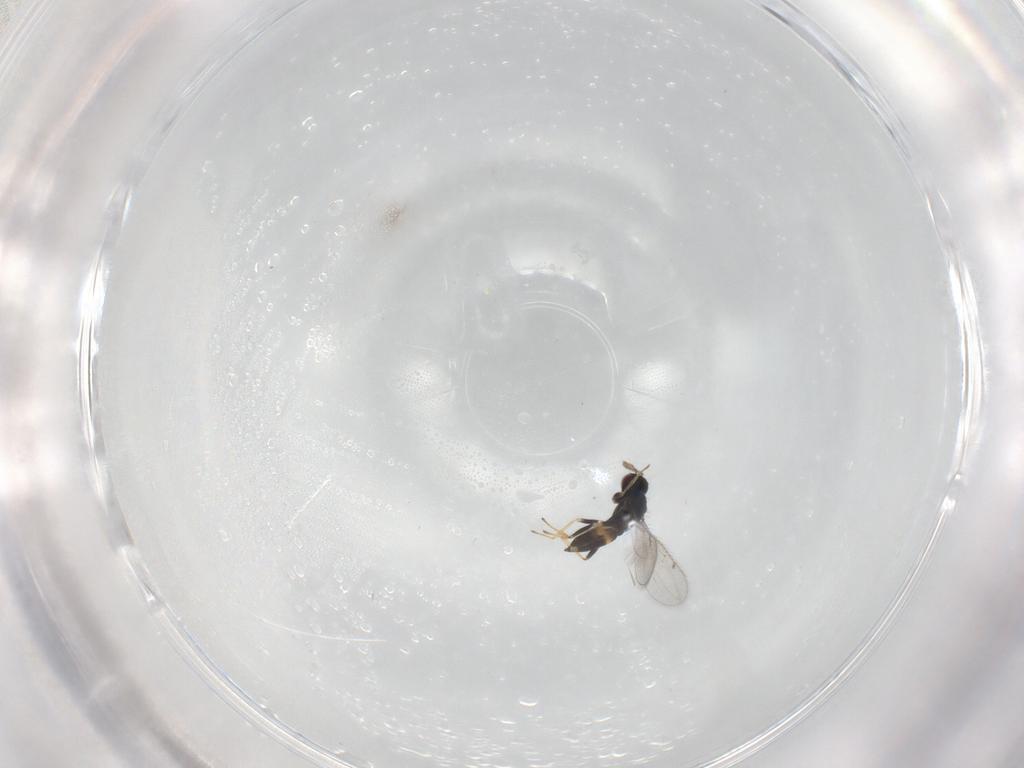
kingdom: Animalia
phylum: Arthropoda
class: Insecta
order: Hymenoptera
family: Eulophidae
